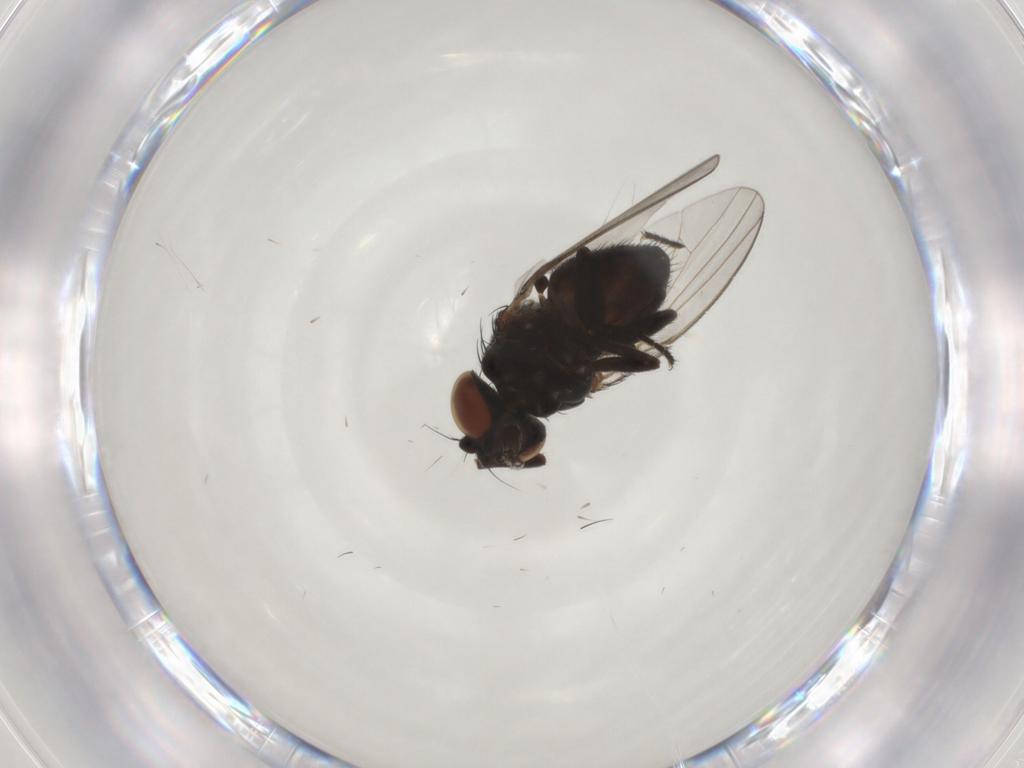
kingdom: Animalia
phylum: Arthropoda
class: Insecta
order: Diptera
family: Milichiidae
